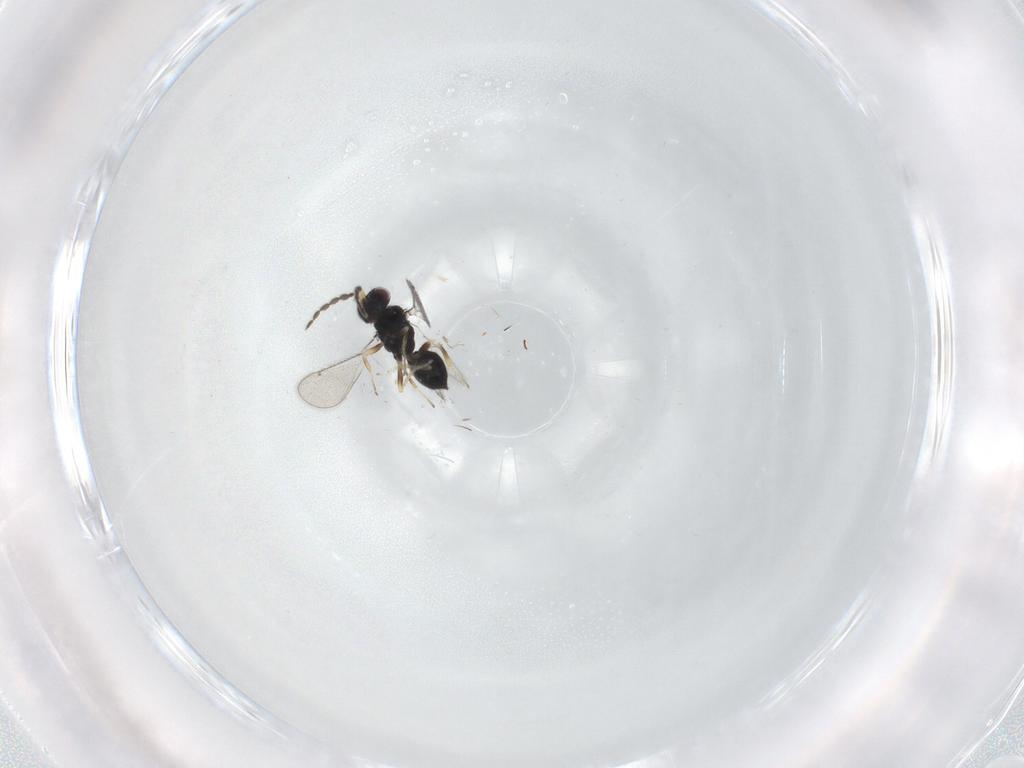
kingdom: Animalia
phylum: Arthropoda
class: Insecta
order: Hymenoptera
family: Eulophidae
